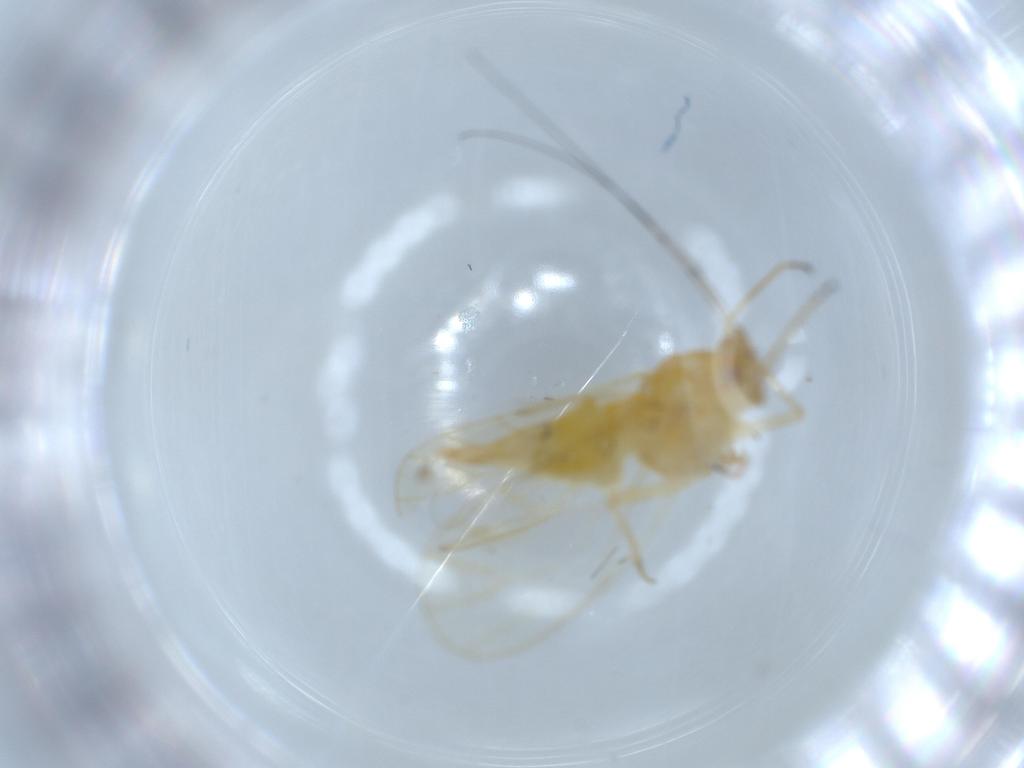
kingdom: Animalia
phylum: Arthropoda
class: Insecta
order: Hemiptera
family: Psyllidae
